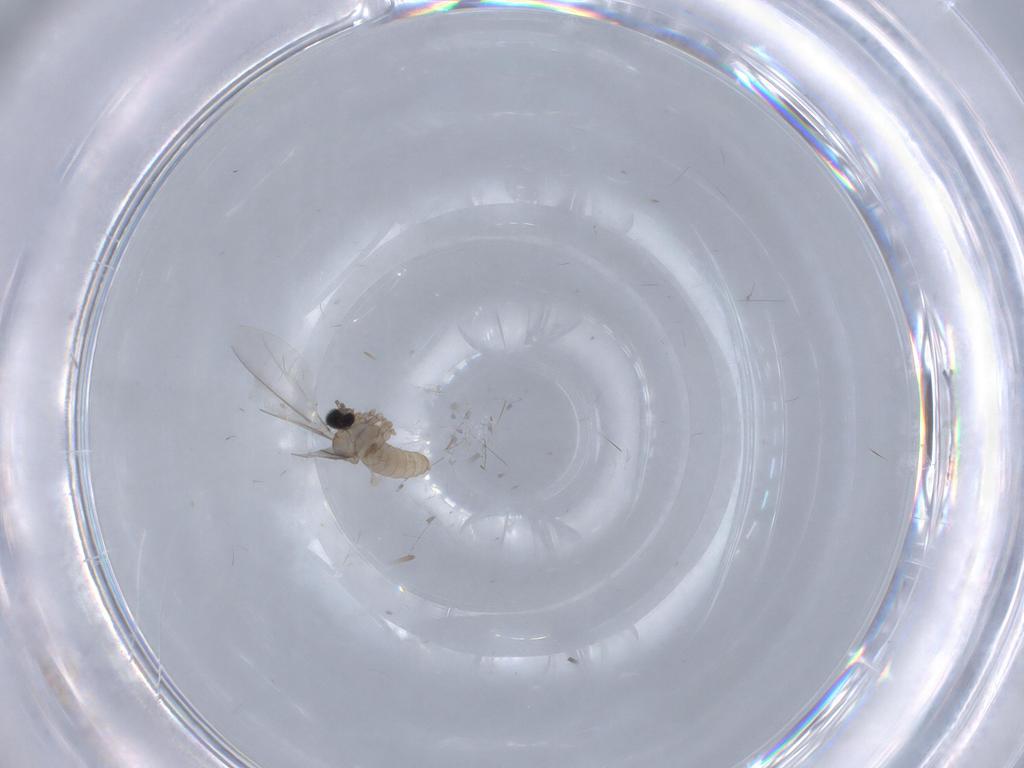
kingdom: Animalia
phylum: Arthropoda
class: Insecta
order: Diptera
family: Cecidomyiidae
